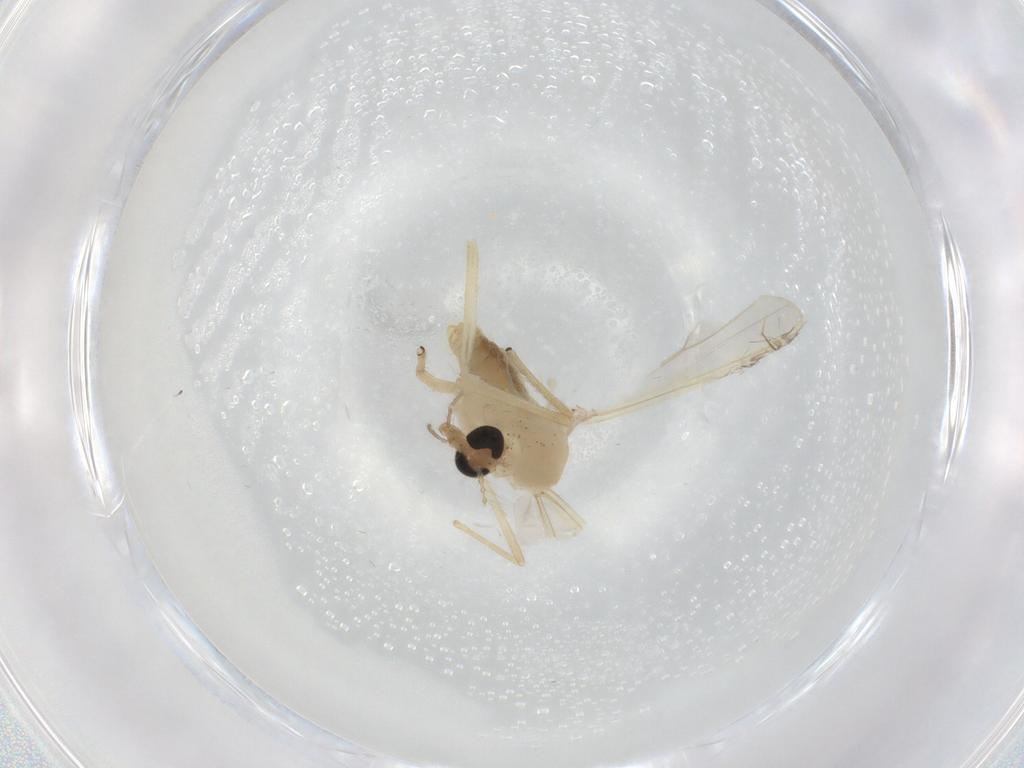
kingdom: Animalia
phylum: Arthropoda
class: Insecta
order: Diptera
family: Chironomidae
